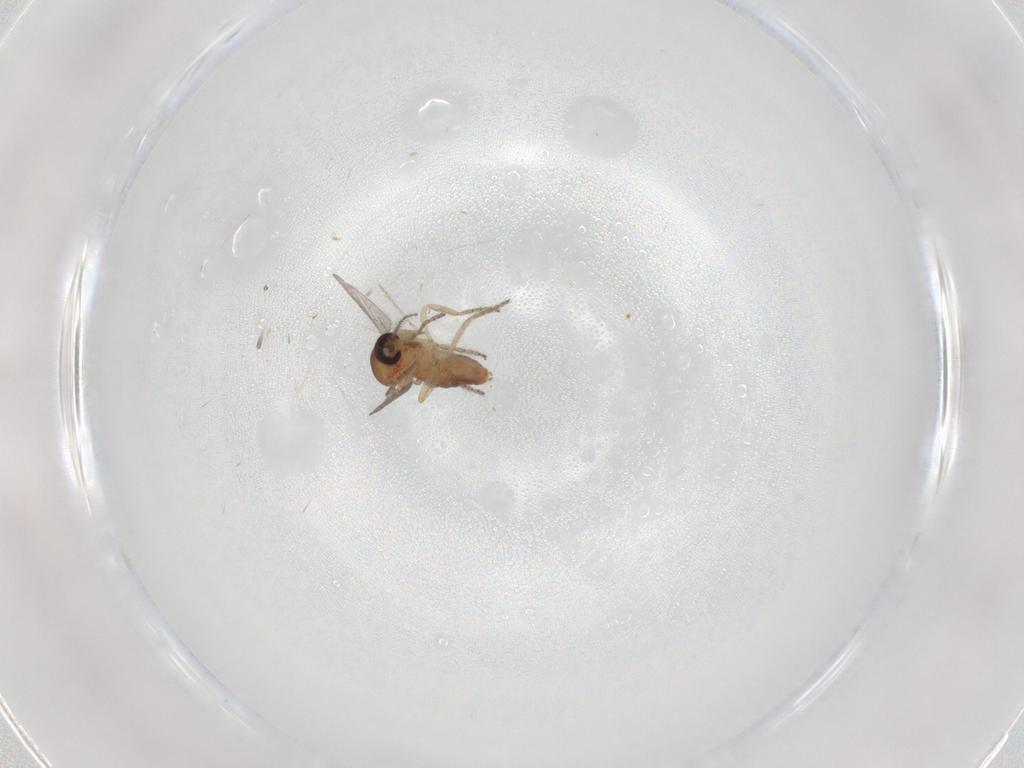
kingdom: Animalia
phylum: Arthropoda
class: Insecta
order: Diptera
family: Ceratopogonidae
